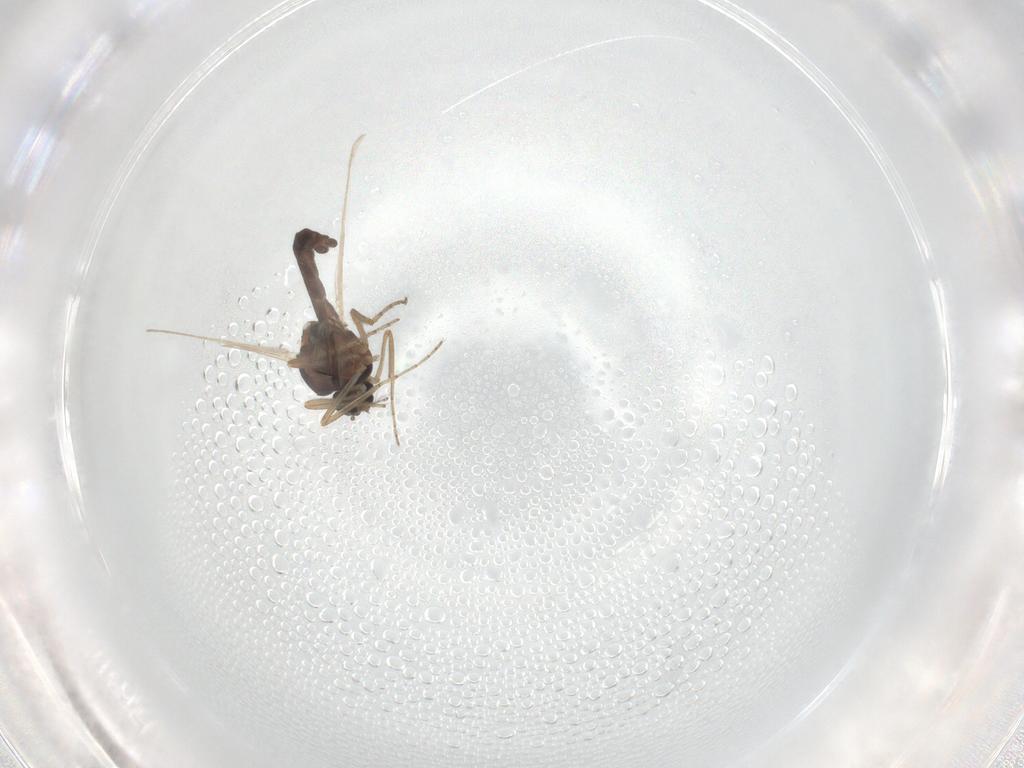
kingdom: Animalia
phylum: Arthropoda
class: Insecta
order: Diptera
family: Ceratopogonidae
